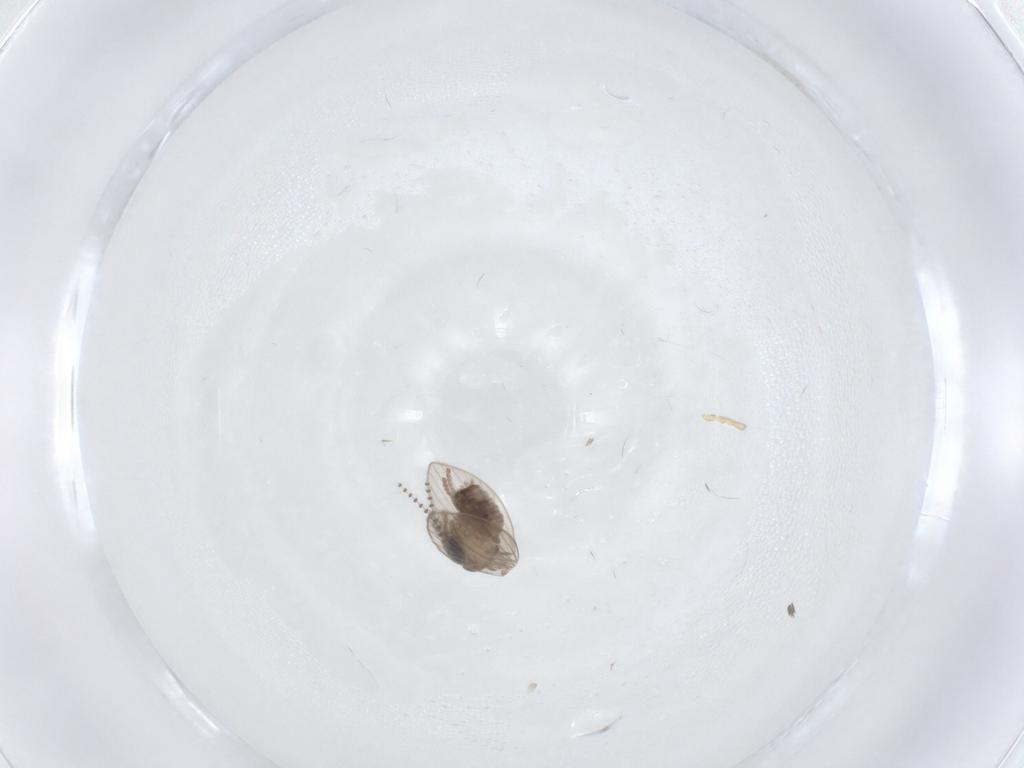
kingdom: Animalia
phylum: Arthropoda
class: Insecta
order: Diptera
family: Psychodidae
